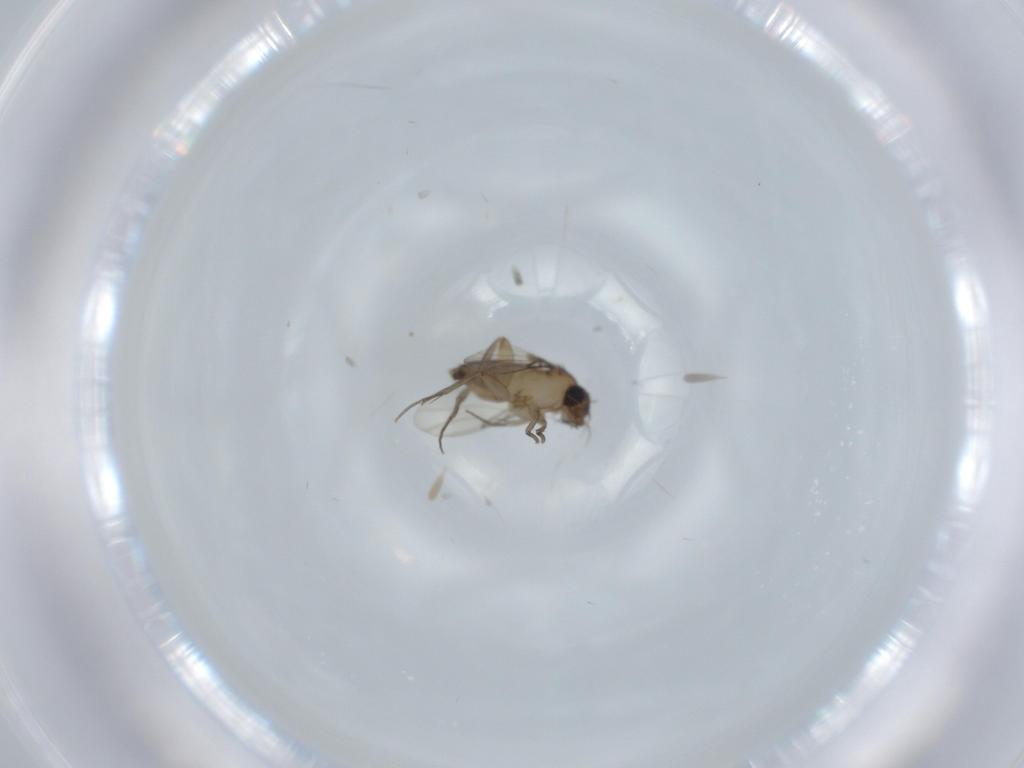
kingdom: Animalia
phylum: Arthropoda
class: Insecta
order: Diptera
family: Phoridae
